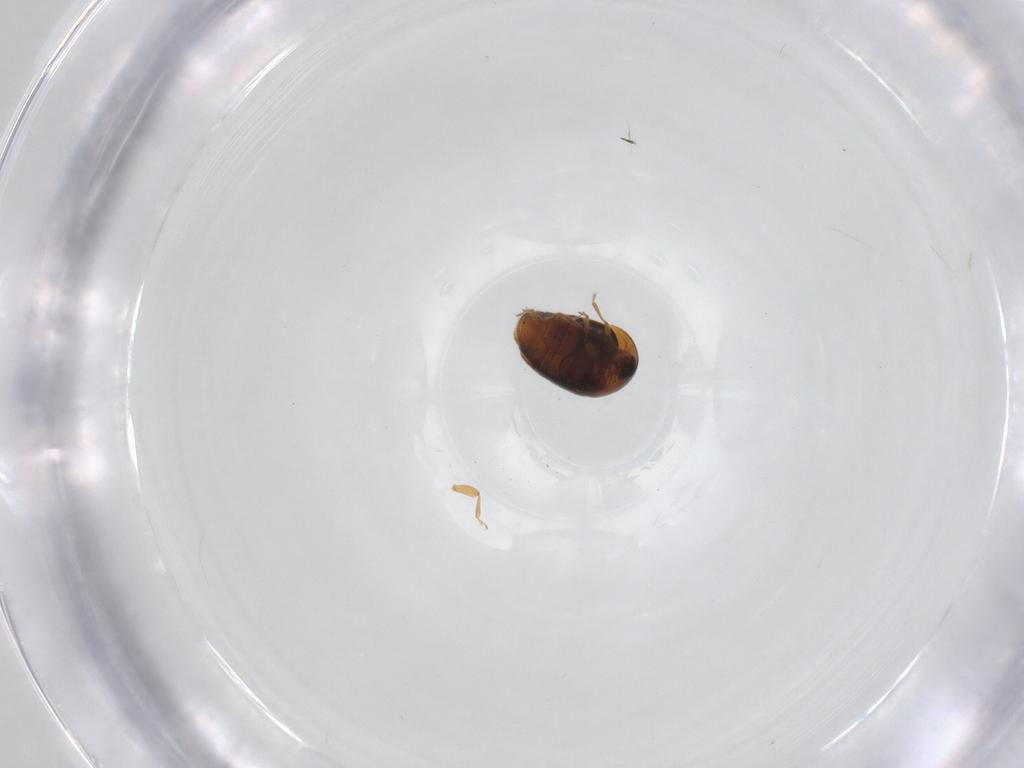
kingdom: Animalia
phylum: Arthropoda
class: Insecta
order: Coleoptera
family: Corylophidae
